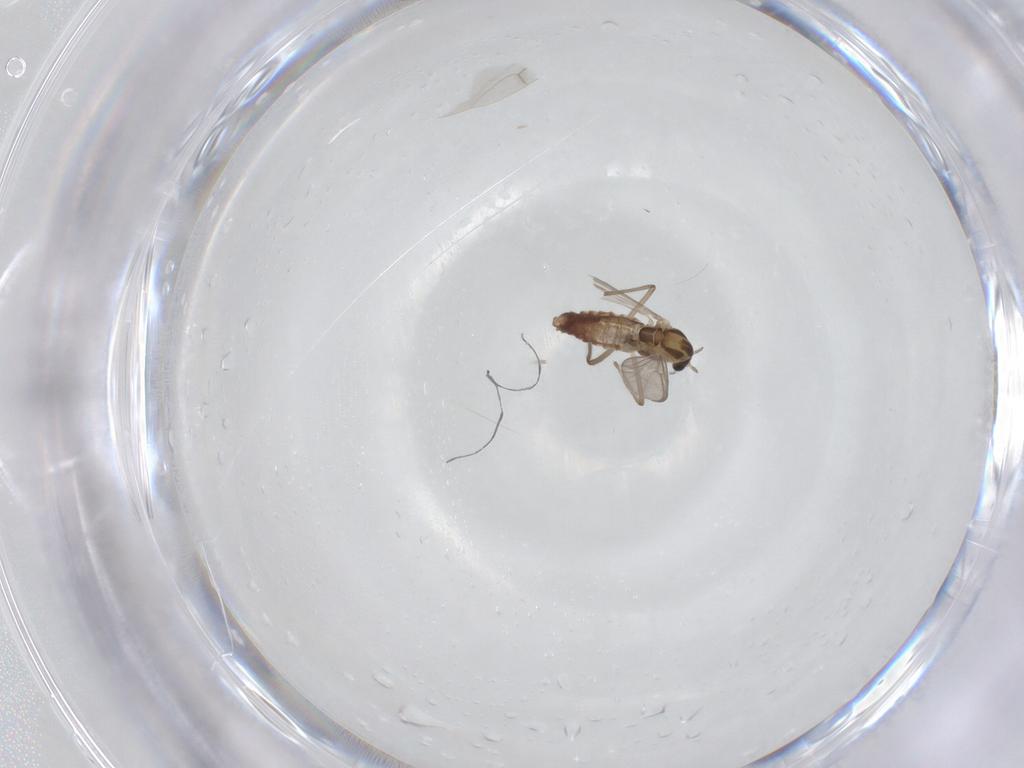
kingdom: Animalia
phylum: Arthropoda
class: Insecta
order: Diptera
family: Chironomidae
